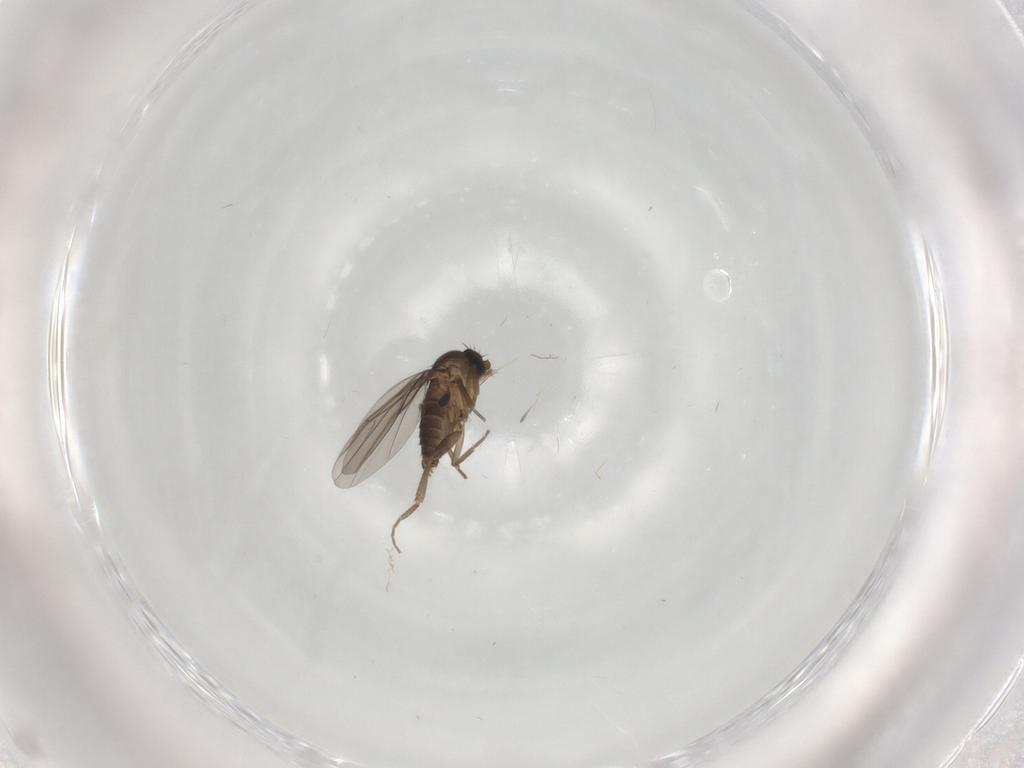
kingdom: Animalia
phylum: Arthropoda
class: Insecta
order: Diptera
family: Phoridae
